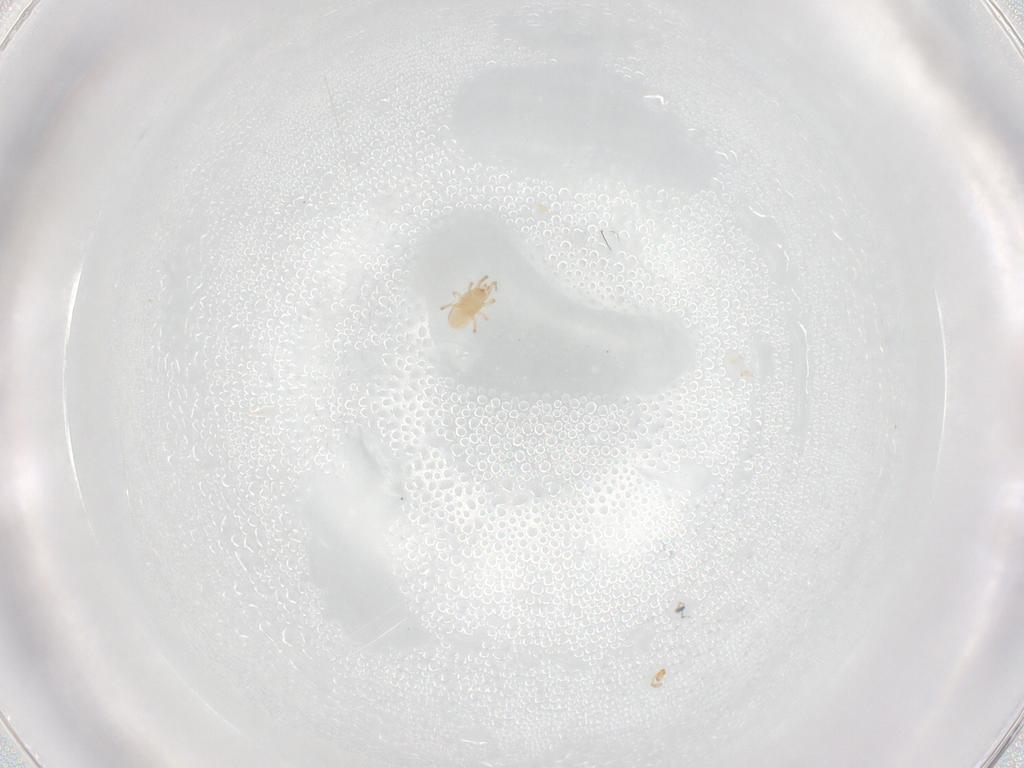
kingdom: Animalia
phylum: Arthropoda
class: Arachnida
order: Mesostigmata
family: Phytoseiidae
